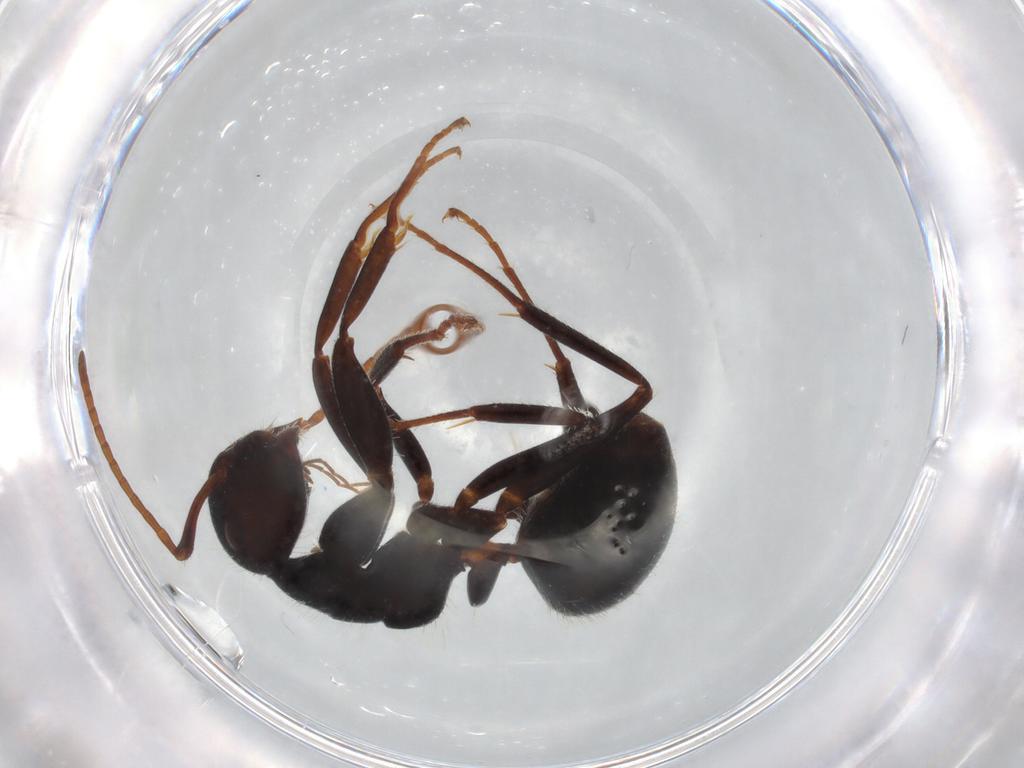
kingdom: Animalia
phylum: Arthropoda
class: Insecta
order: Hymenoptera
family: Formicidae
